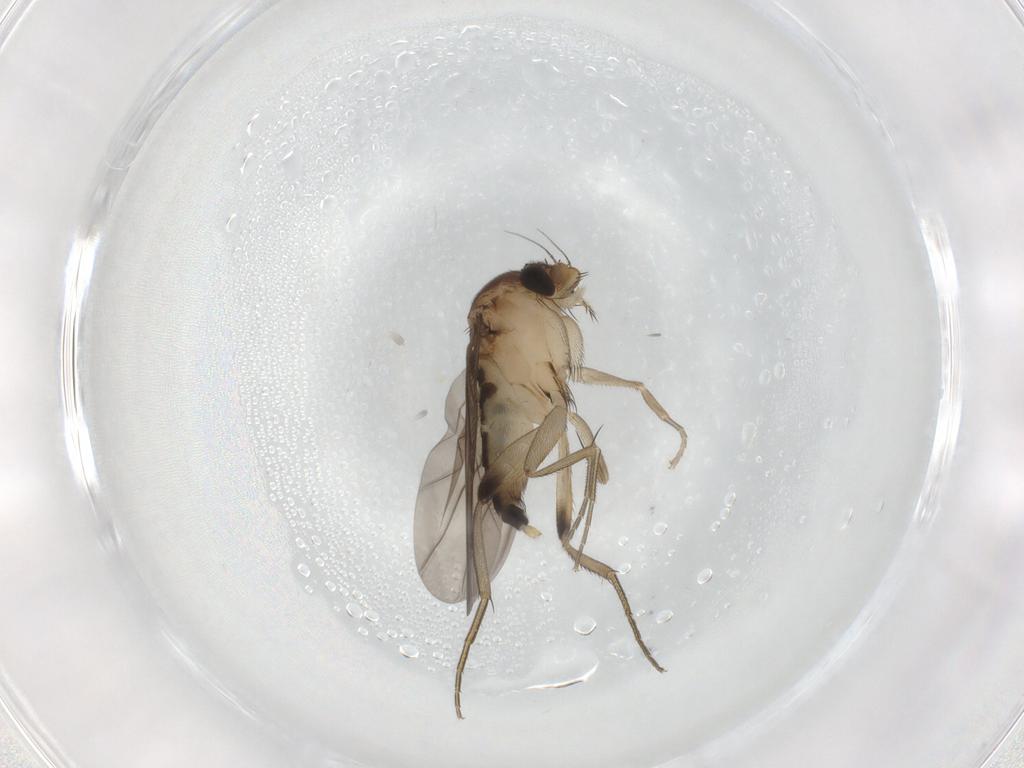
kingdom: Animalia
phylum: Arthropoda
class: Insecta
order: Diptera
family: Phoridae
